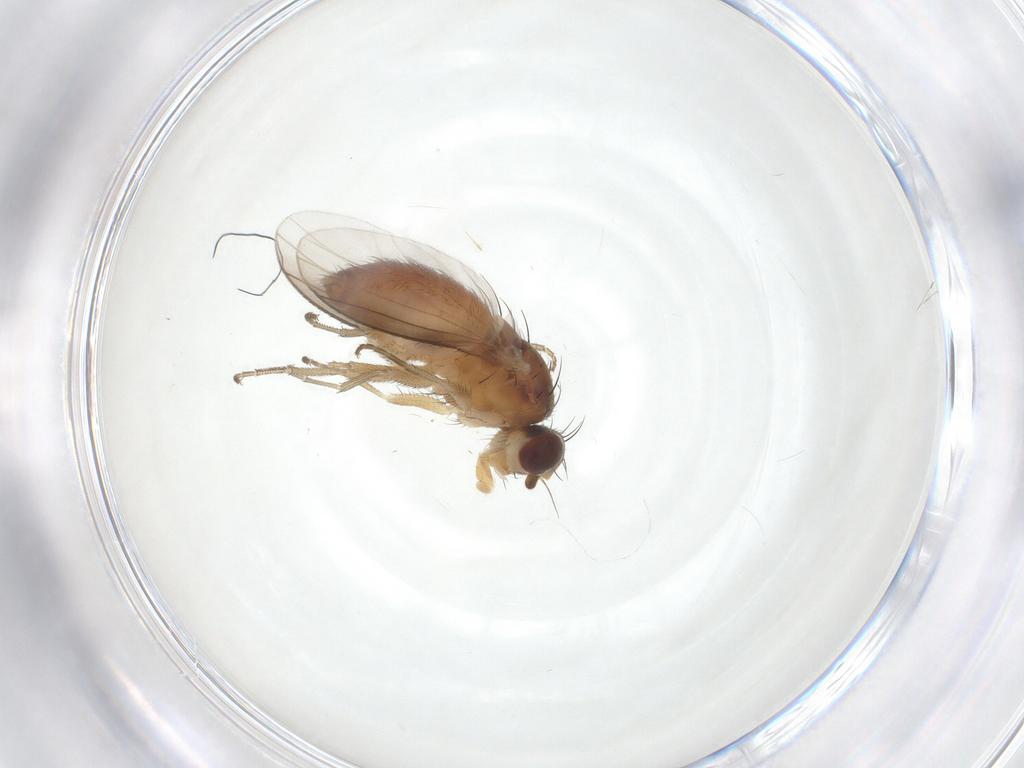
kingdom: Animalia
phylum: Arthropoda
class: Insecta
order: Diptera
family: Heleomyzidae
